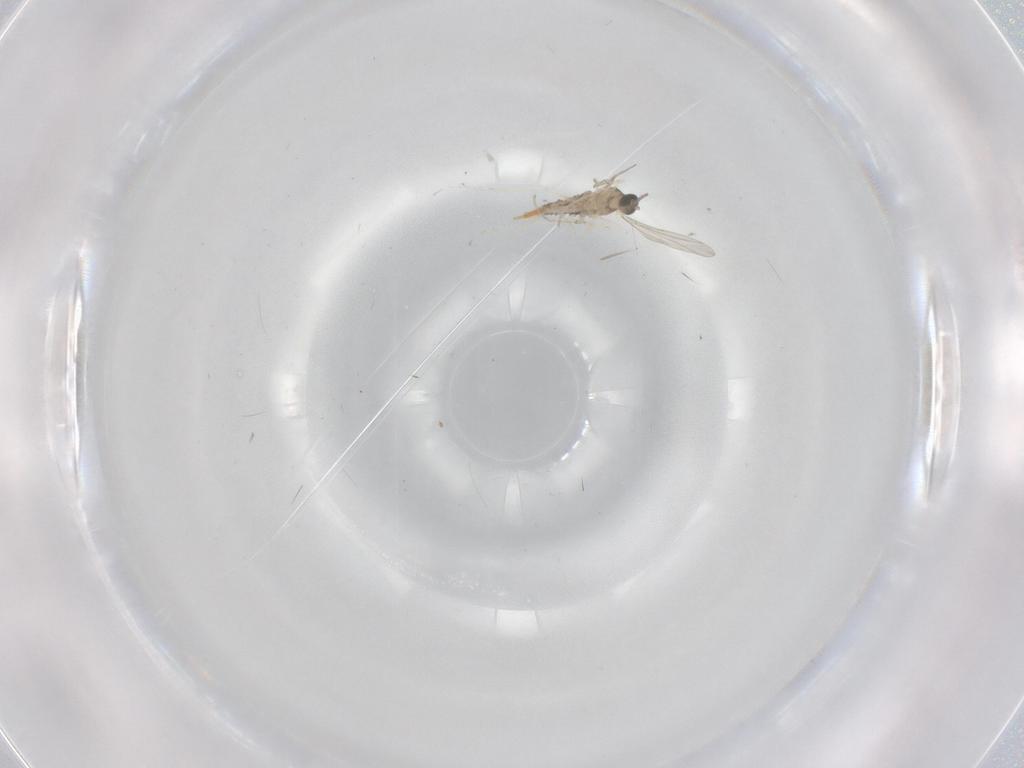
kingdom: Animalia
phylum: Arthropoda
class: Insecta
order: Diptera
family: Cecidomyiidae
